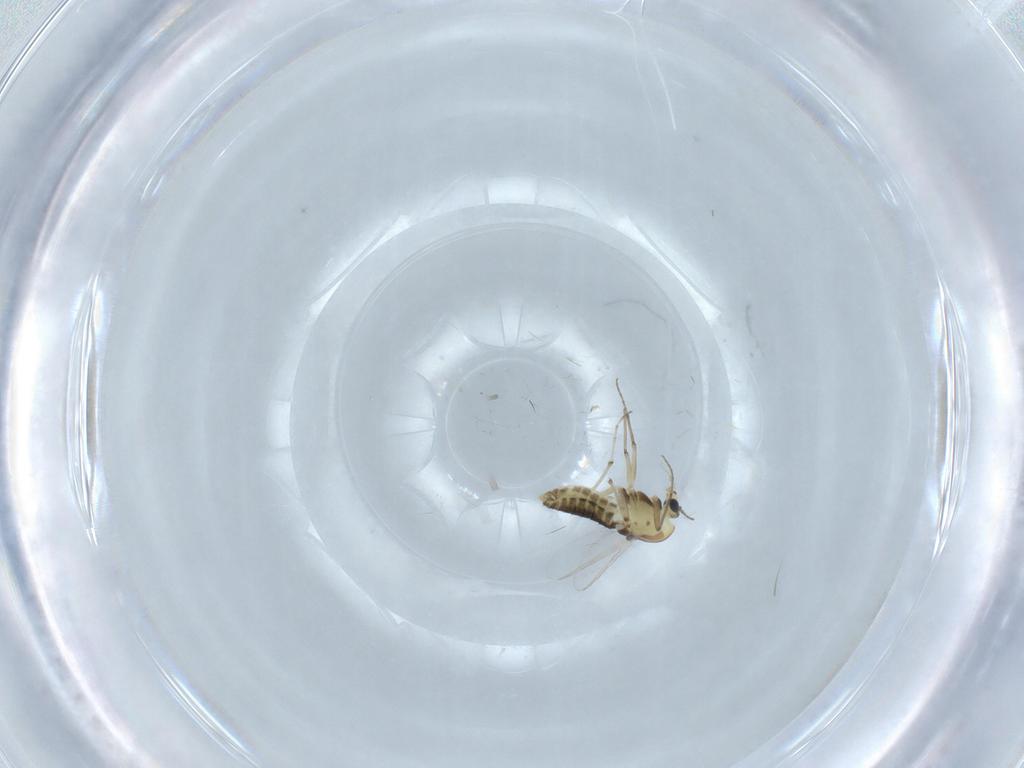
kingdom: Animalia
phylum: Arthropoda
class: Insecta
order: Diptera
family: Chironomidae
